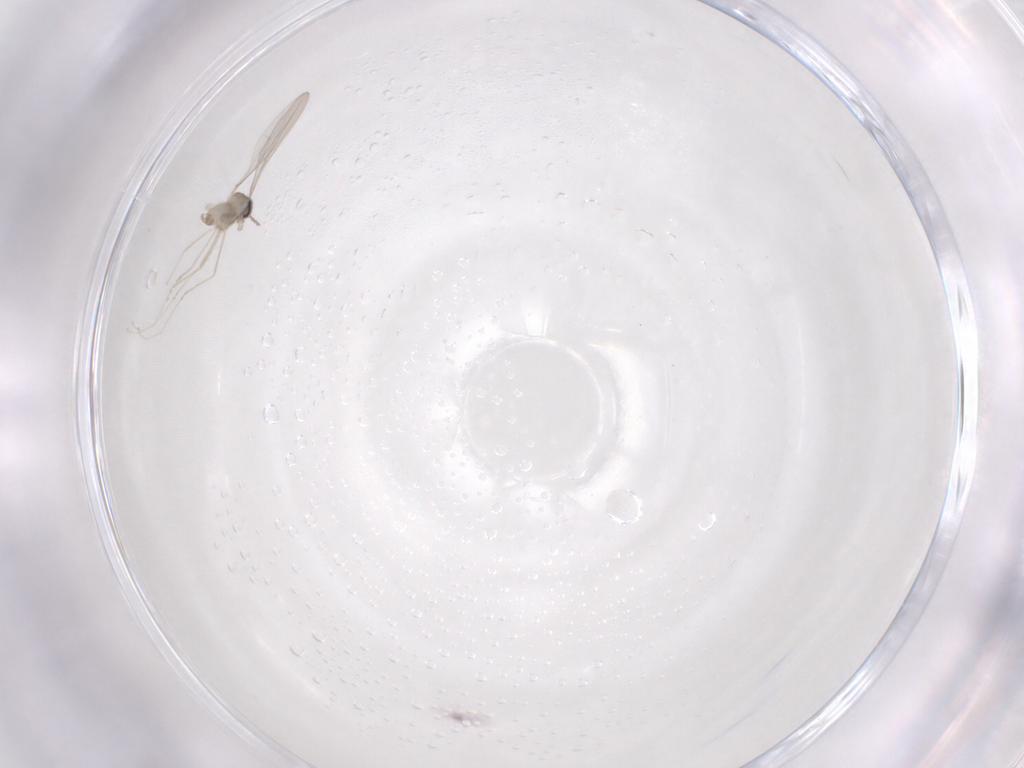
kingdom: Animalia
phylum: Arthropoda
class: Insecta
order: Diptera
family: Cecidomyiidae
